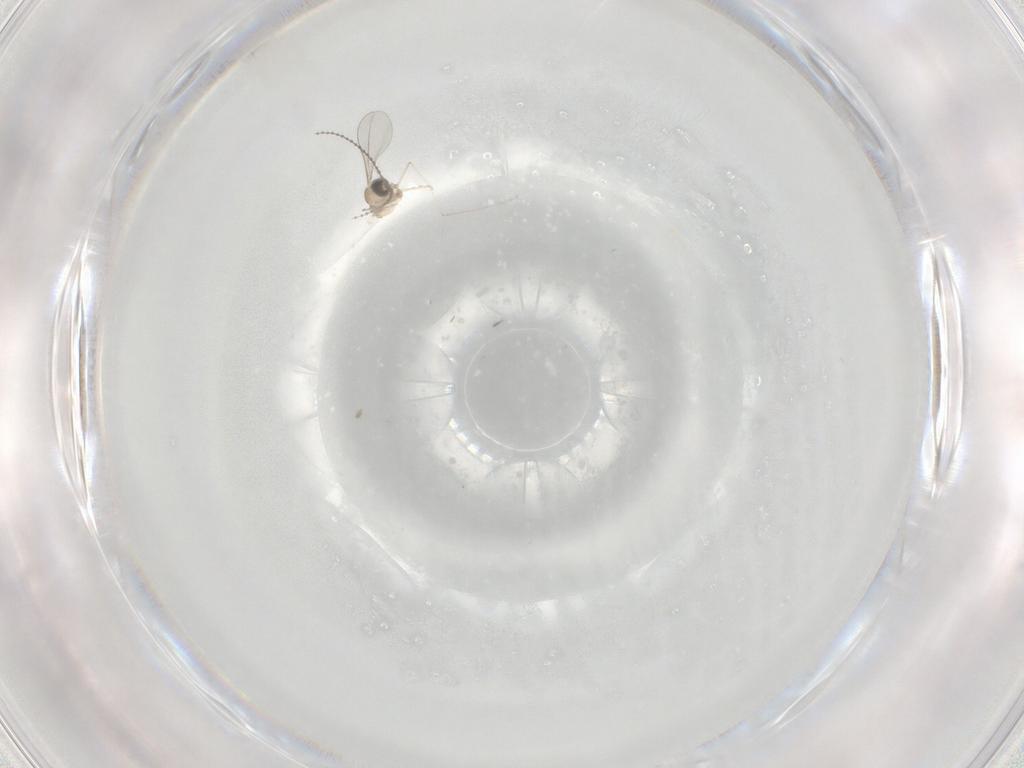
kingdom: Animalia
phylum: Arthropoda
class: Insecta
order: Diptera
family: Cecidomyiidae
